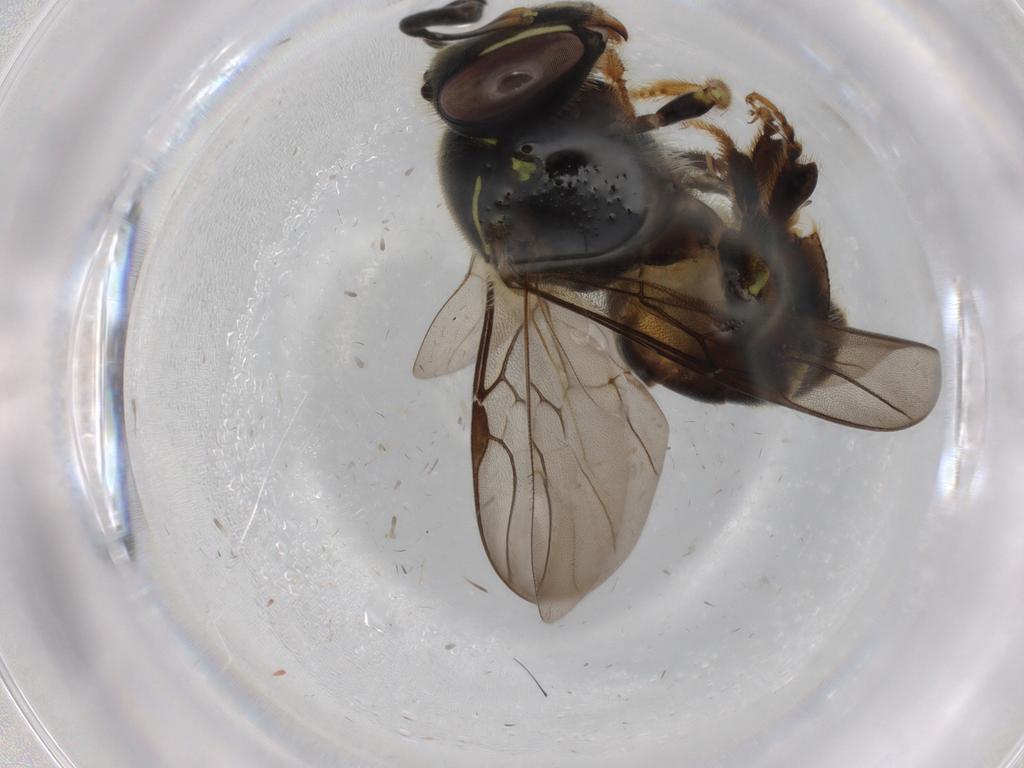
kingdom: Animalia
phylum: Arthropoda
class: Insecta
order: Hymenoptera
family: Apidae
